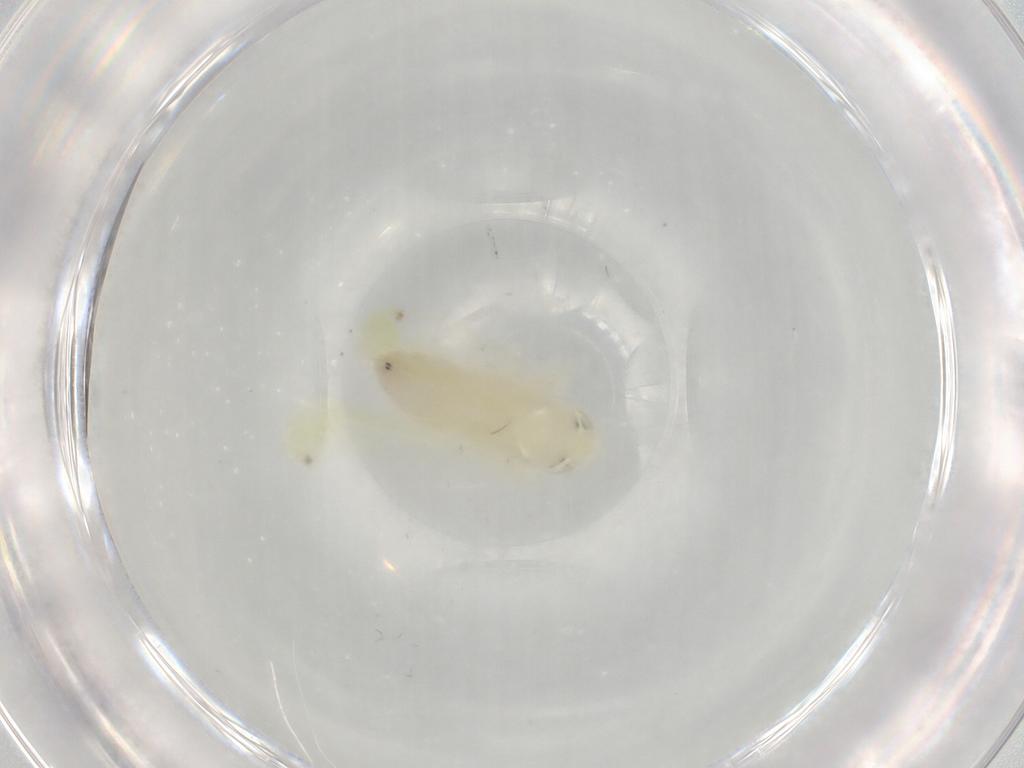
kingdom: Animalia
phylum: Arthropoda
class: Insecta
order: Hemiptera
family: Cicadellidae
